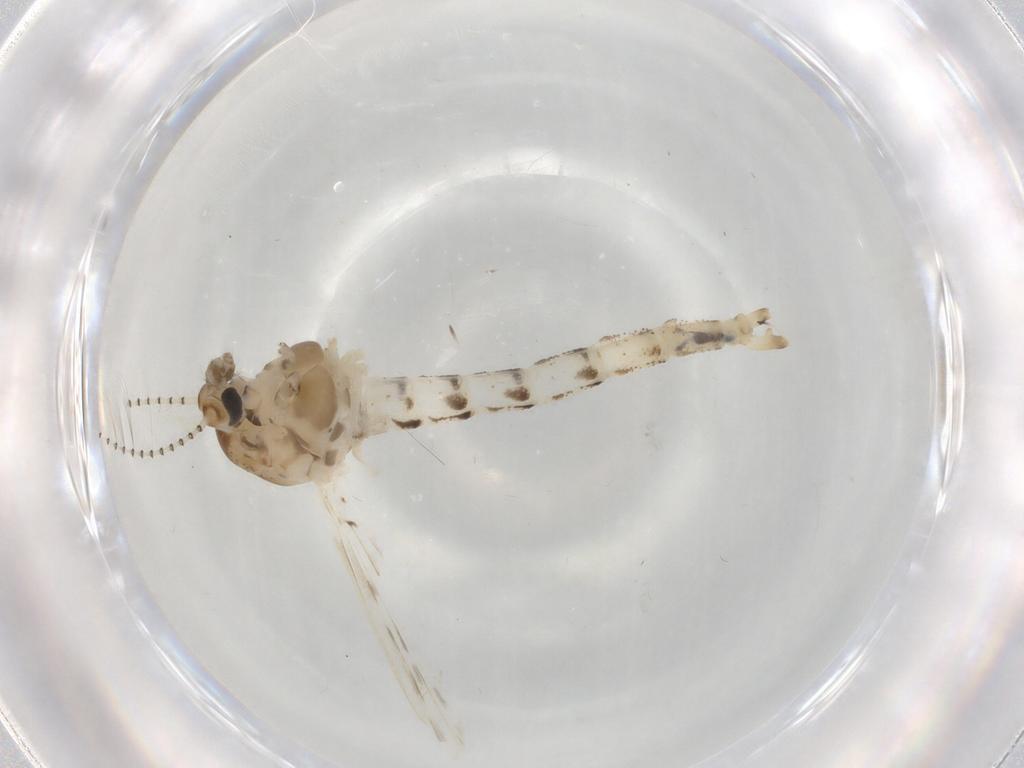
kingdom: Animalia
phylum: Arthropoda
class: Insecta
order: Diptera
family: Chaoboridae
